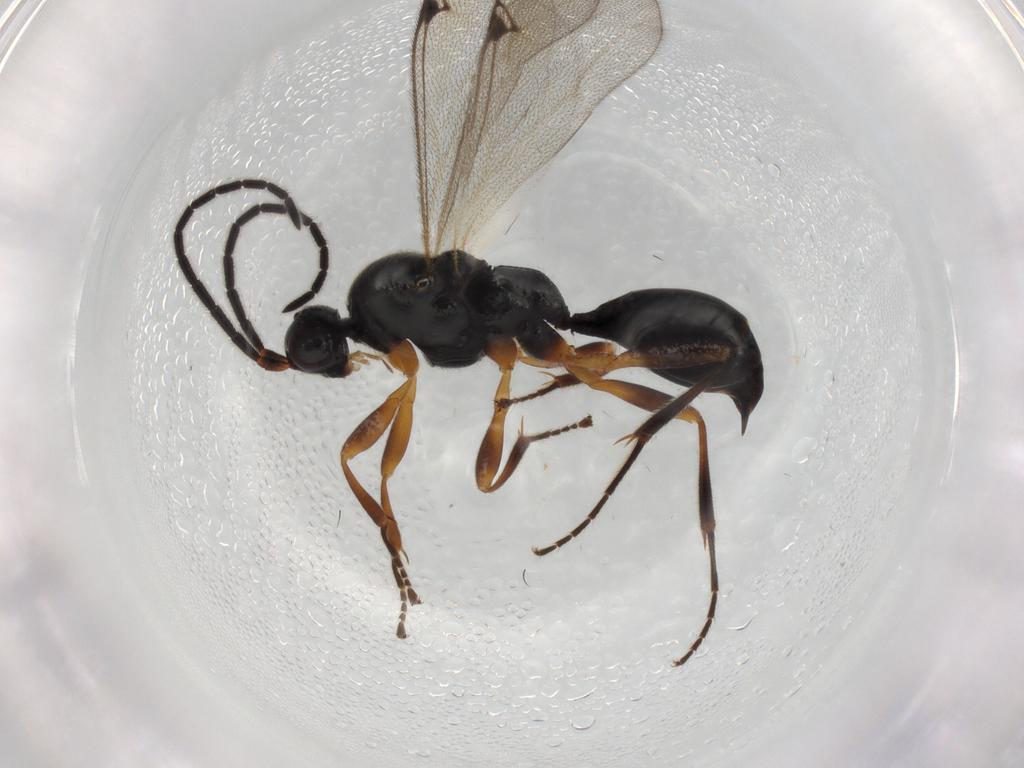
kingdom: Animalia
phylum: Arthropoda
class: Insecta
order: Hymenoptera
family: Proctotrupidae
